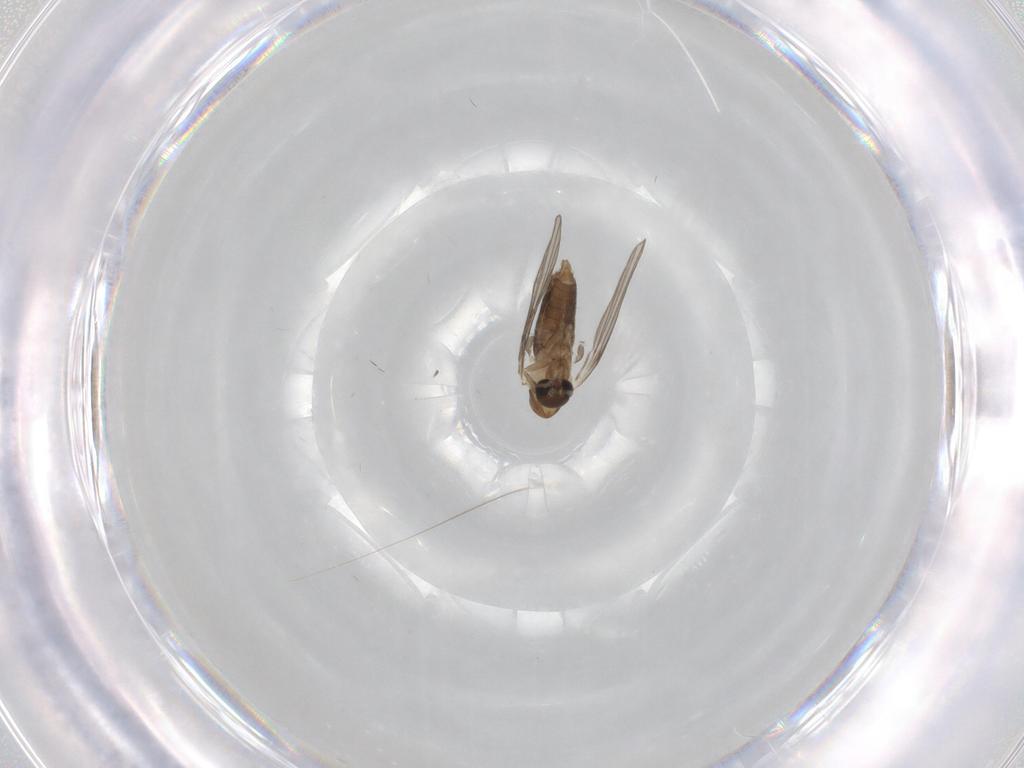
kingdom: Animalia
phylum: Arthropoda
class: Insecta
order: Diptera
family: Psychodidae
